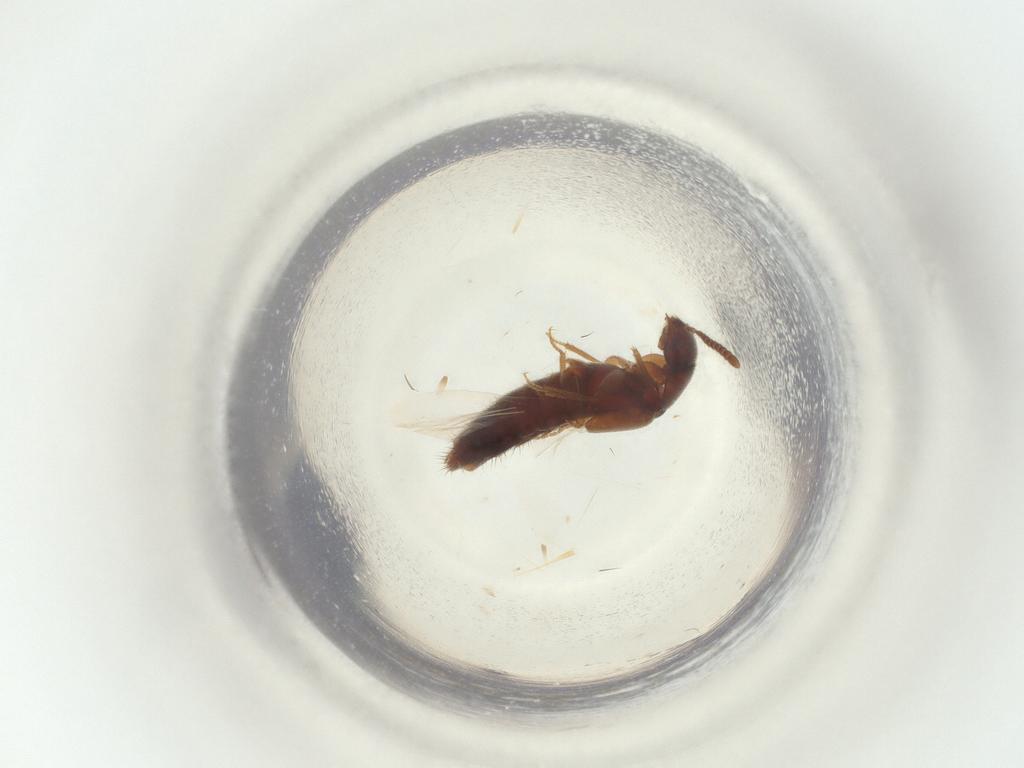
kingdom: Animalia
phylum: Arthropoda
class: Insecta
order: Diptera
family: Sciaridae
